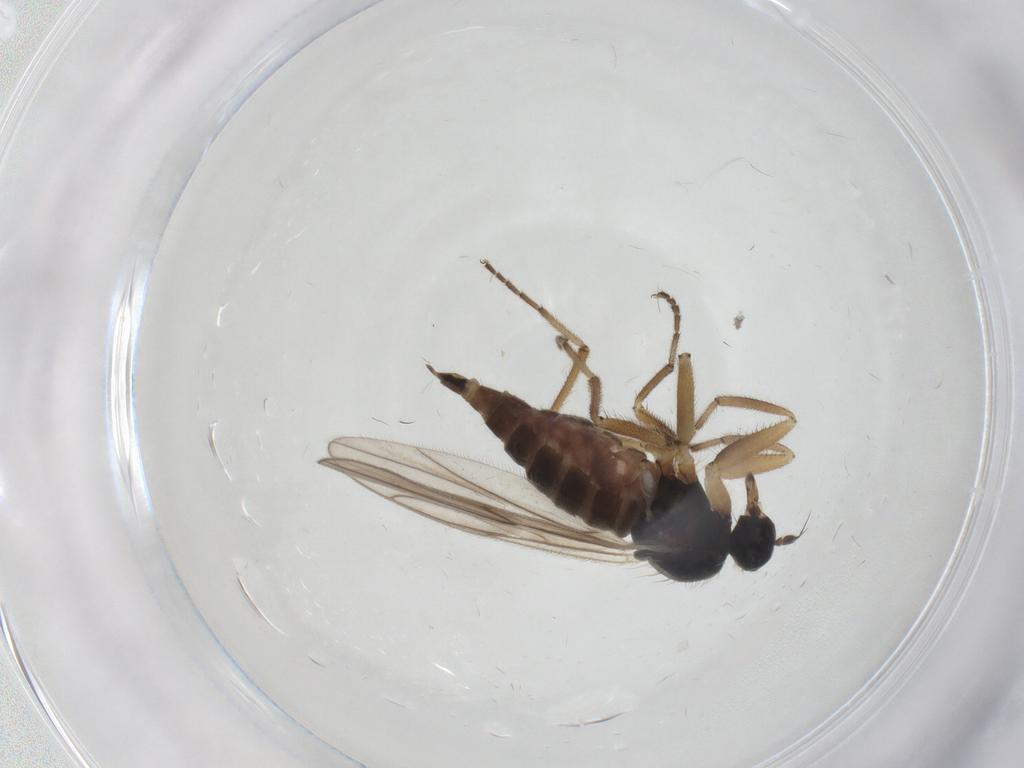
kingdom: Animalia
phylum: Arthropoda
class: Insecta
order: Diptera
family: Hybotidae
